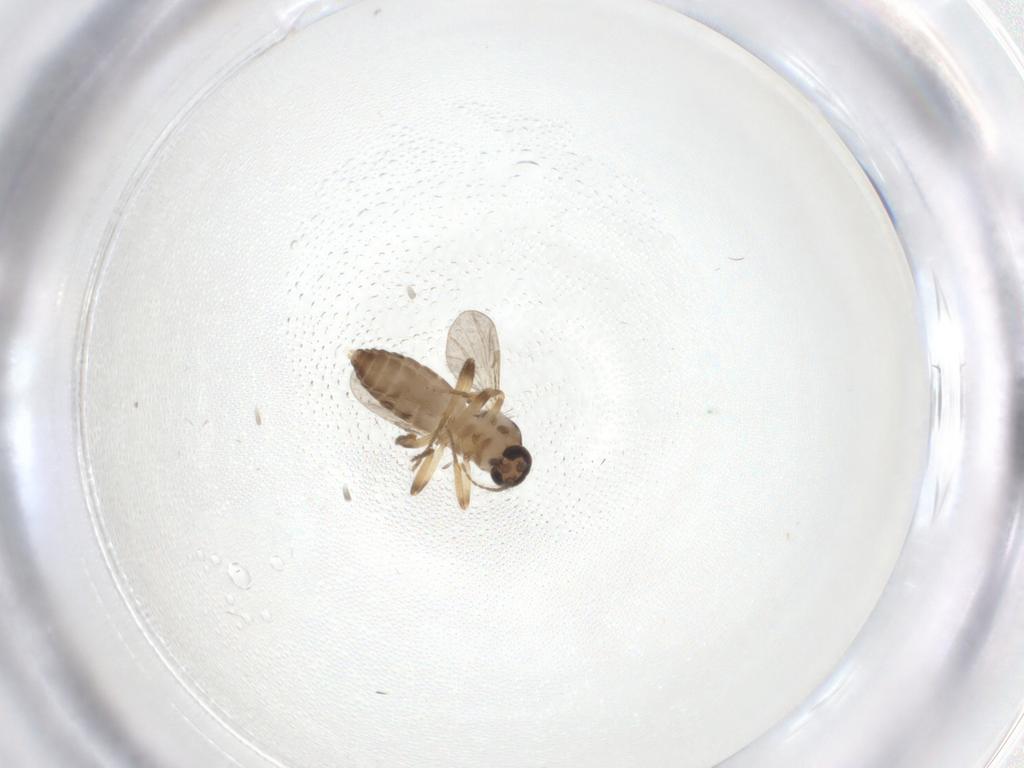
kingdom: Animalia
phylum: Arthropoda
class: Insecta
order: Diptera
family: Ceratopogonidae
